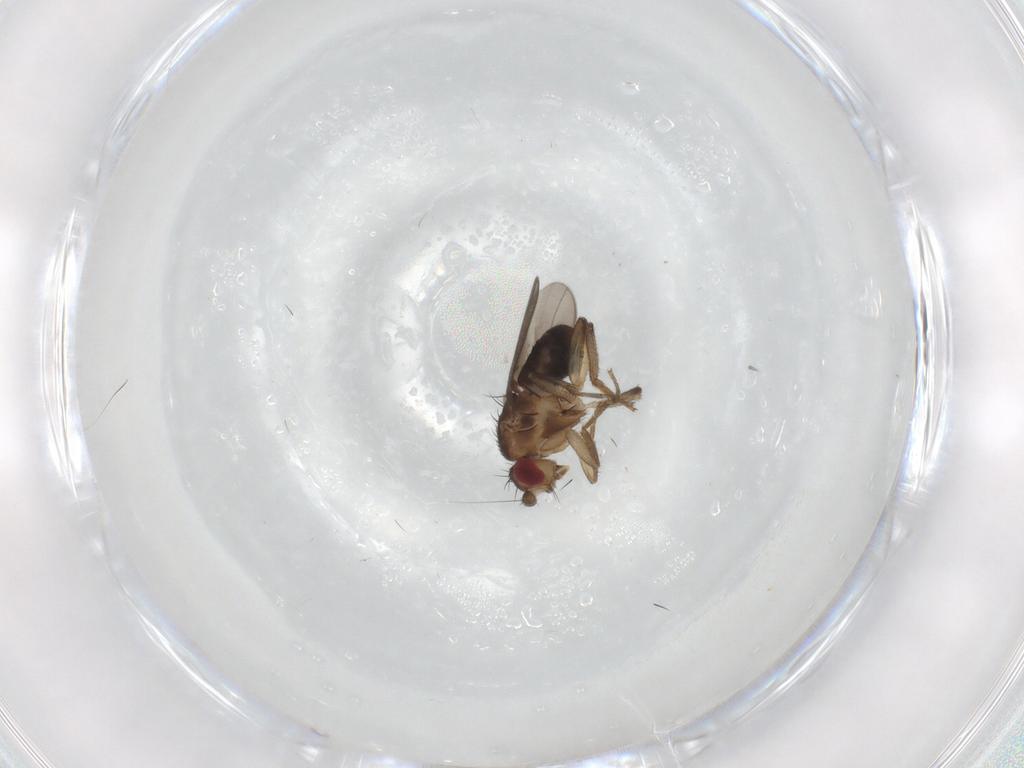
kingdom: Animalia
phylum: Arthropoda
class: Insecta
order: Diptera
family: Sphaeroceridae
